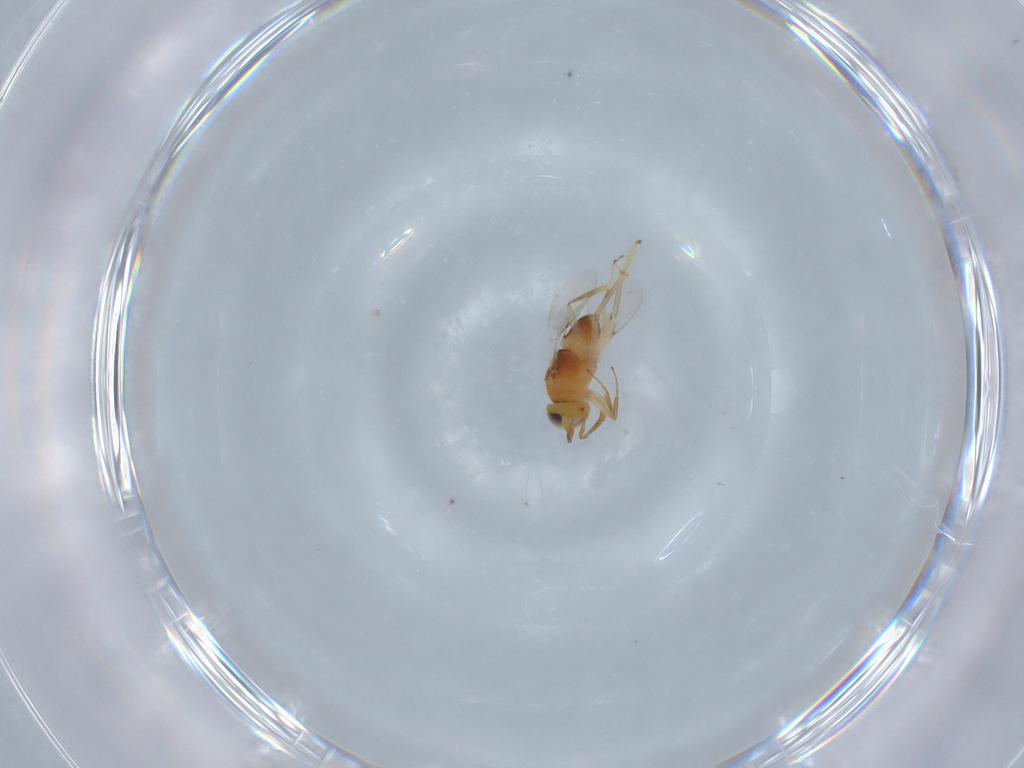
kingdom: Animalia
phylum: Arthropoda
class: Insecta
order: Hymenoptera
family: Encyrtidae
